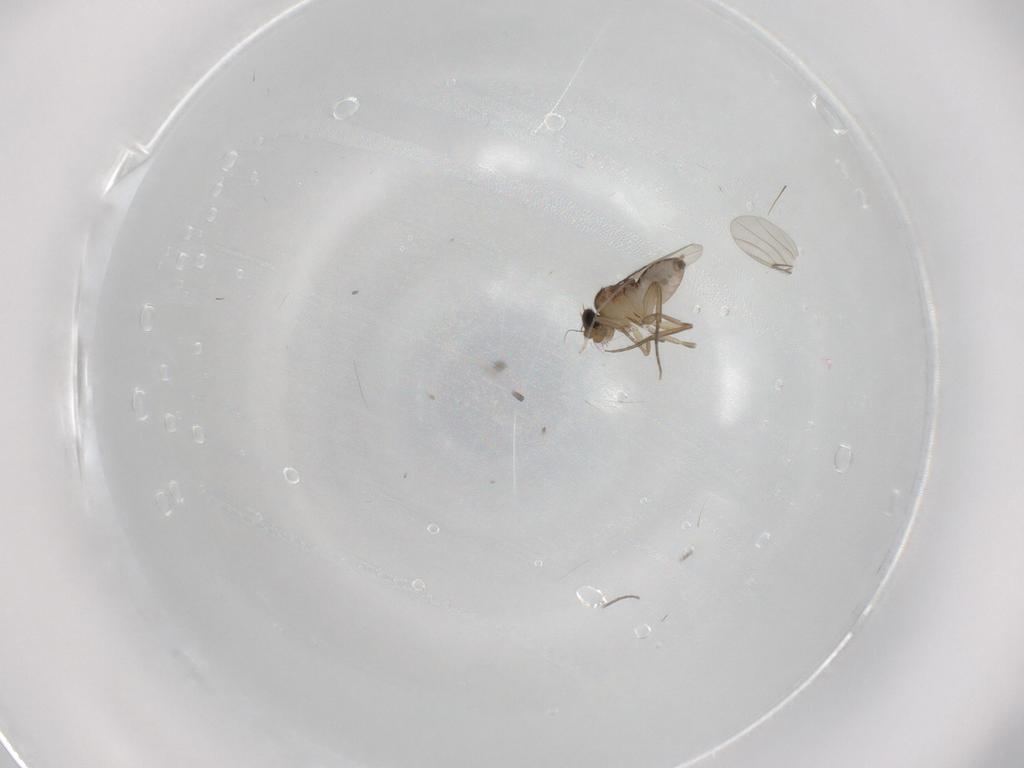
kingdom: Animalia
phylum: Arthropoda
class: Insecta
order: Diptera
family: Phoridae
